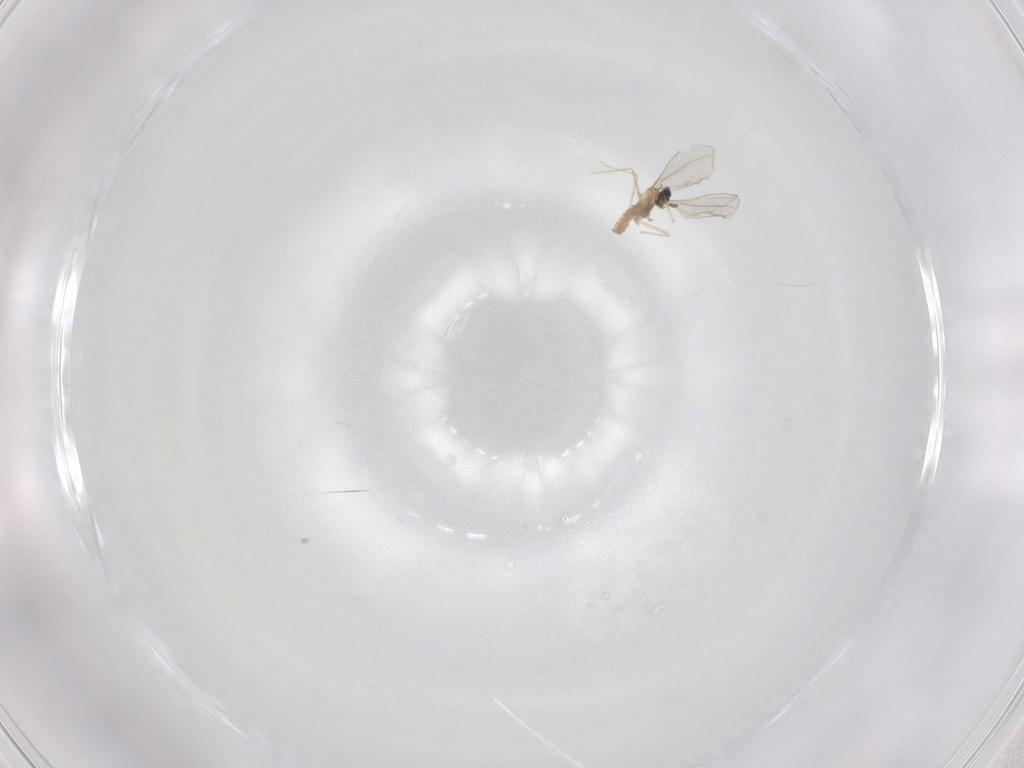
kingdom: Animalia
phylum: Arthropoda
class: Insecta
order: Diptera
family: Cecidomyiidae
